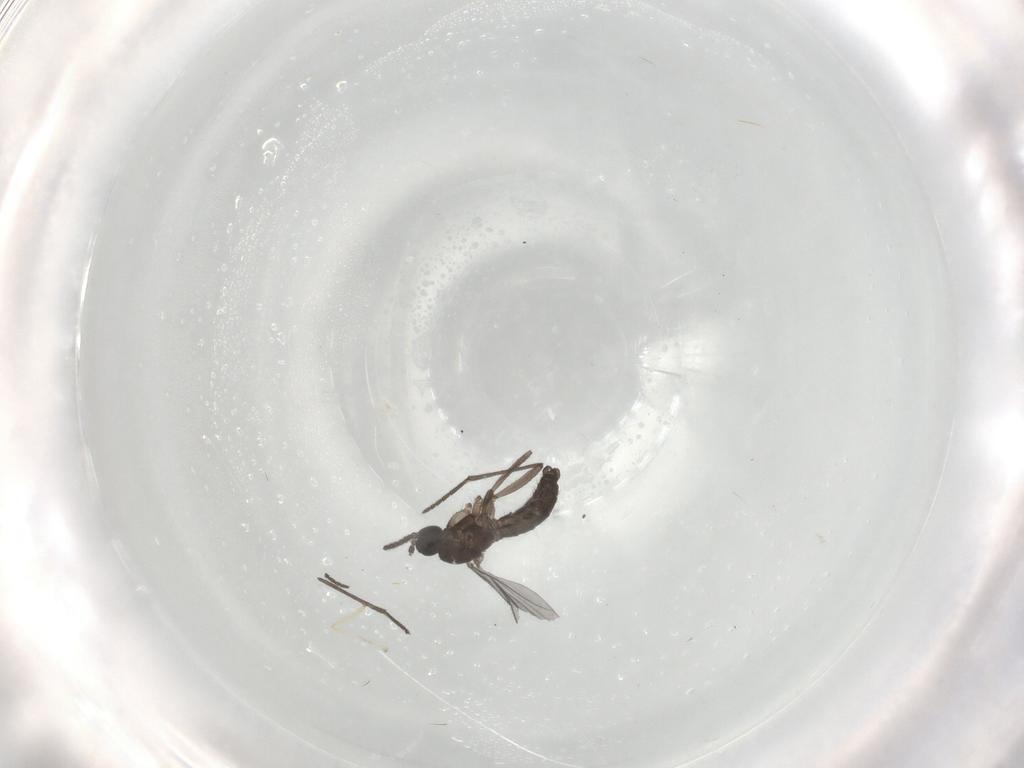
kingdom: Animalia
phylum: Arthropoda
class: Insecta
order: Diptera
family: Sciaridae
